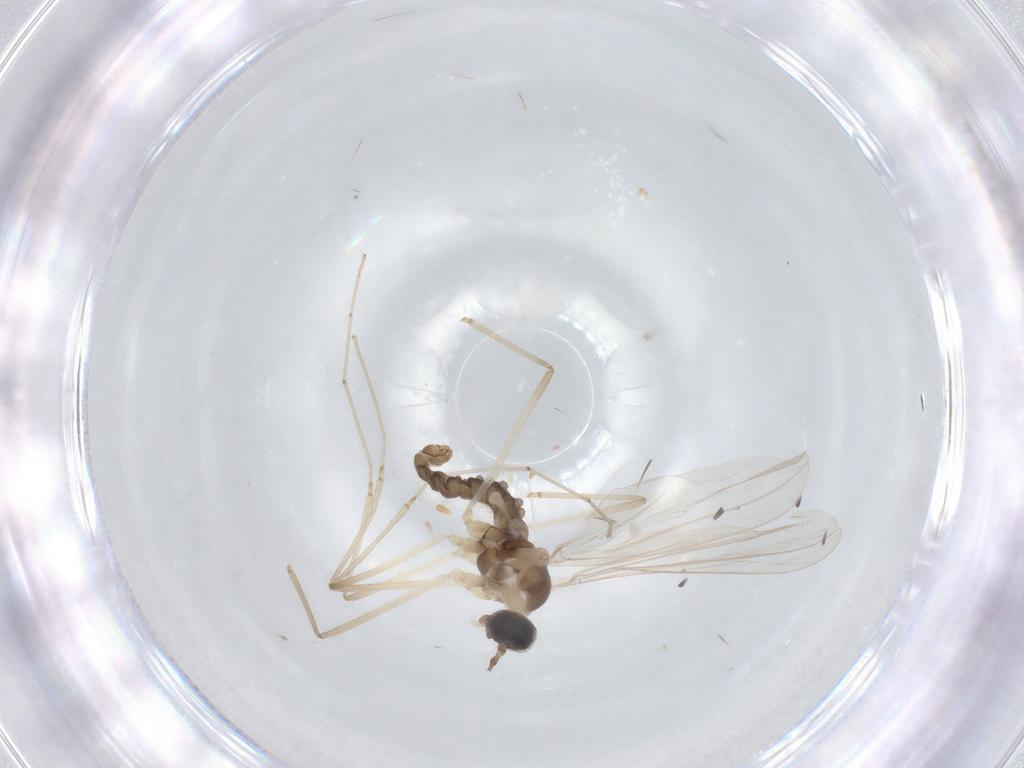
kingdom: Animalia
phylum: Arthropoda
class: Insecta
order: Diptera
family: Cecidomyiidae
